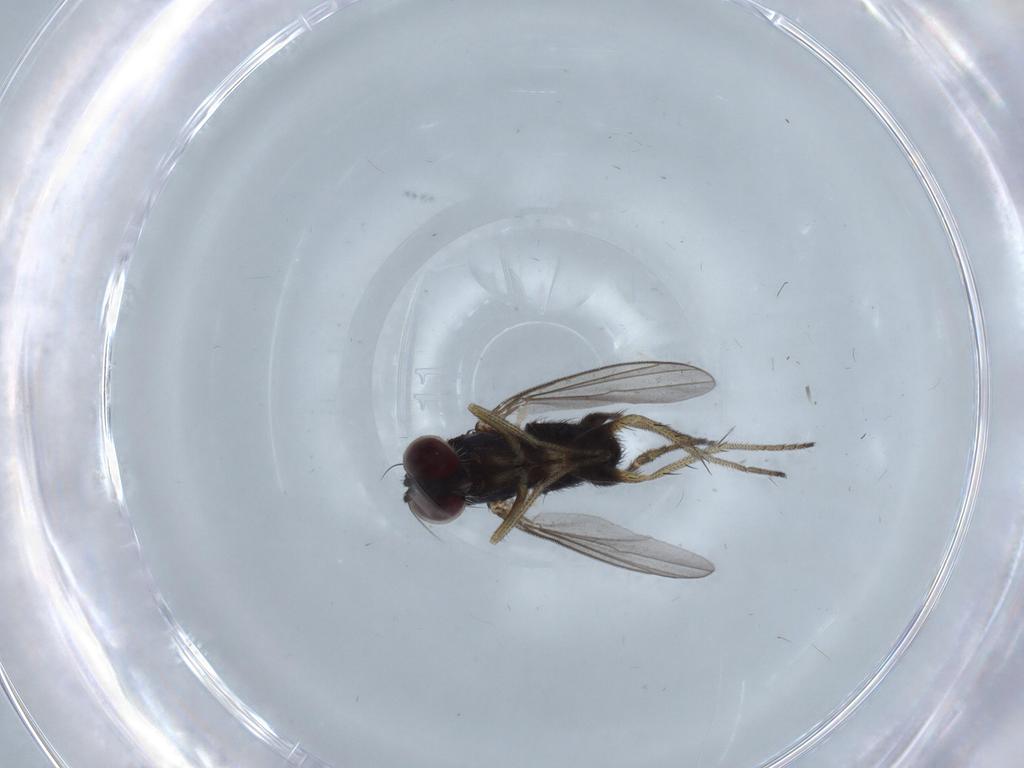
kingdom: Animalia
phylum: Arthropoda
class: Insecta
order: Diptera
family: Dolichopodidae
